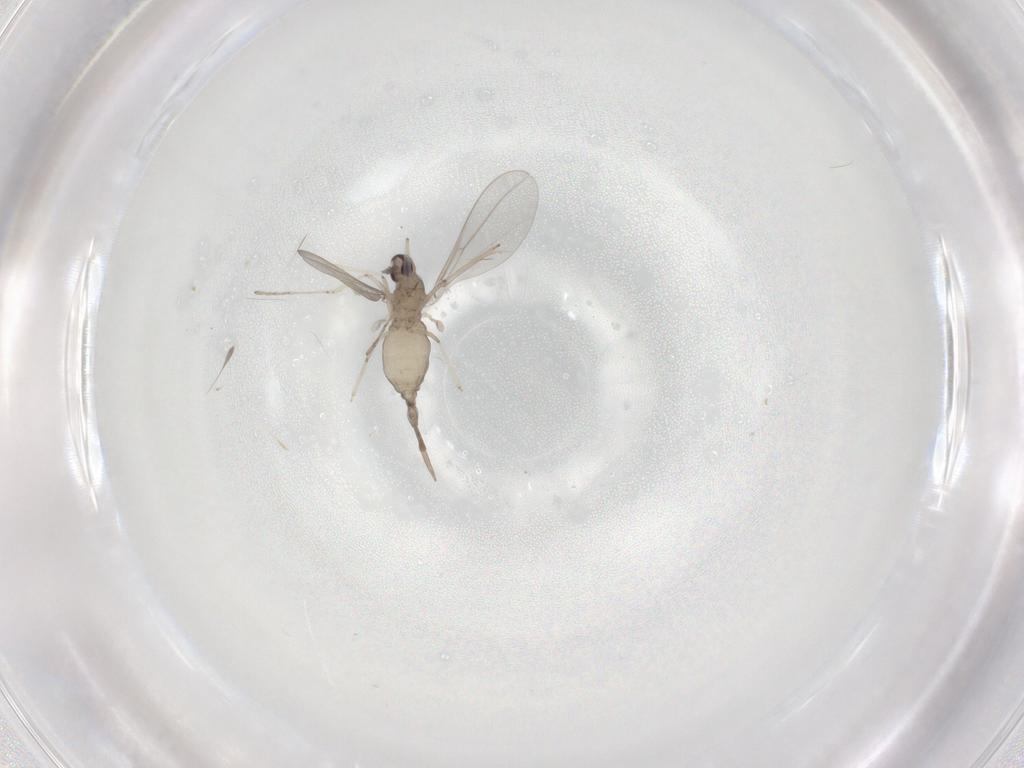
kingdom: Animalia
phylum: Arthropoda
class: Insecta
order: Diptera
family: Cecidomyiidae
